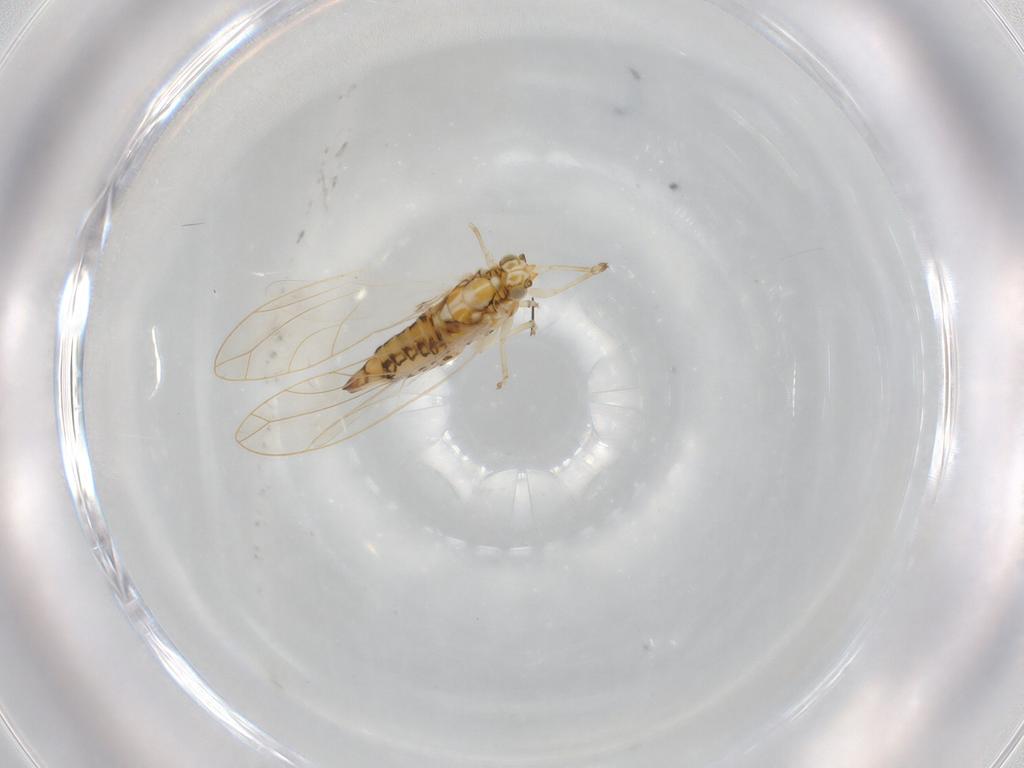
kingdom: Animalia
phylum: Arthropoda
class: Insecta
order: Hemiptera
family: Triozidae
